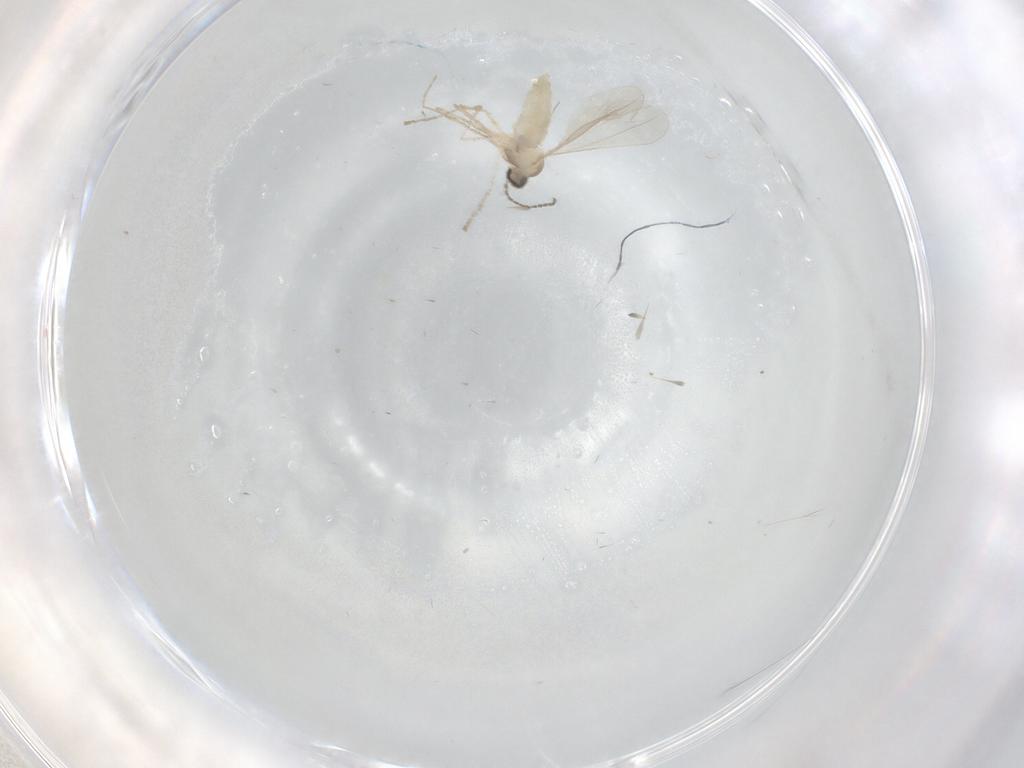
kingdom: Animalia
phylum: Arthropoda
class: Insecta
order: Diptera
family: Cecidomyiidae
